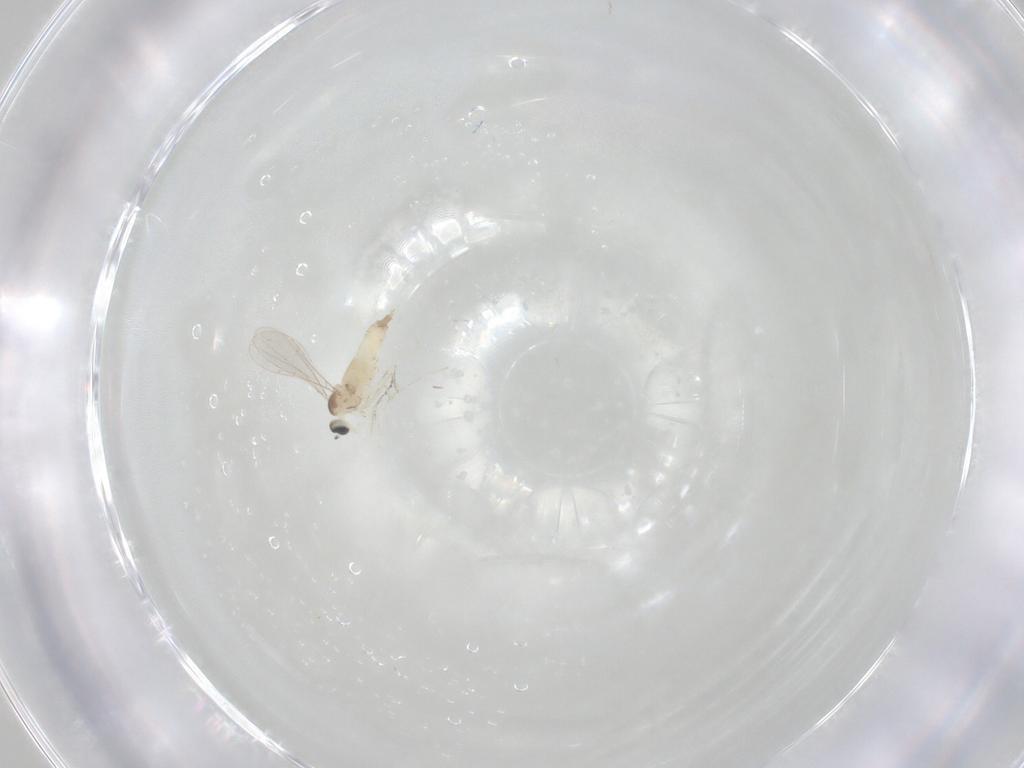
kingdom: Animalia
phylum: Arthropoda
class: Insecta
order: Diptera
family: Cecidomyiidae
